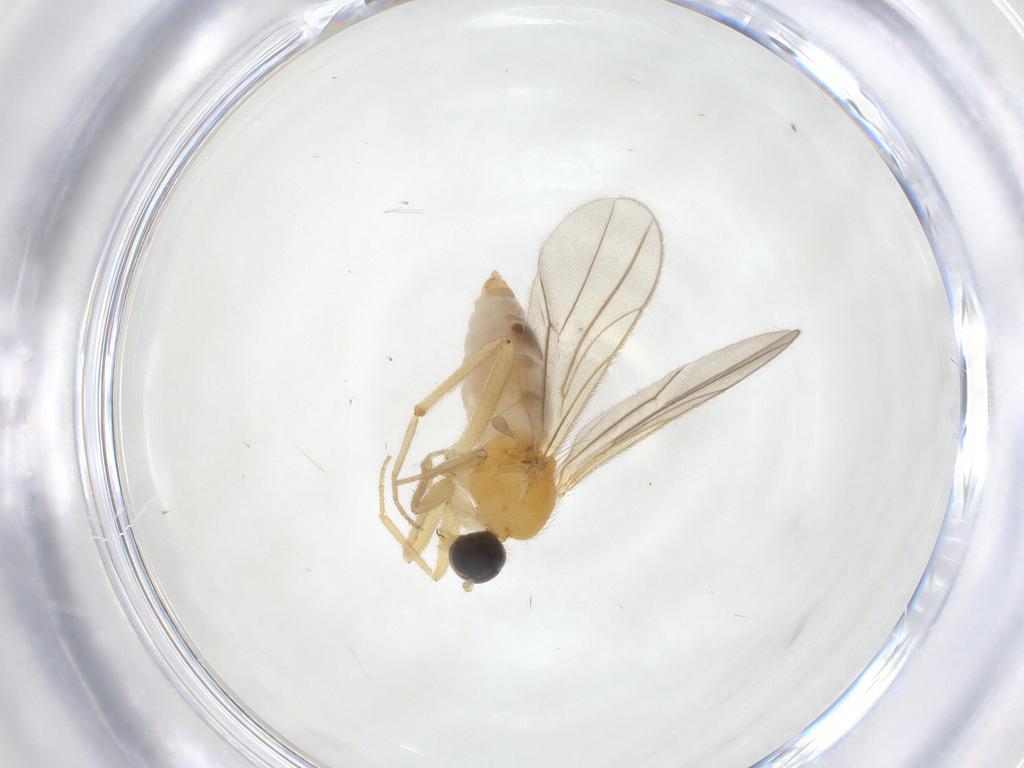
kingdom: Animalia
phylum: Arthropoda
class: Insecta
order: Diptera
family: Hybotidae
